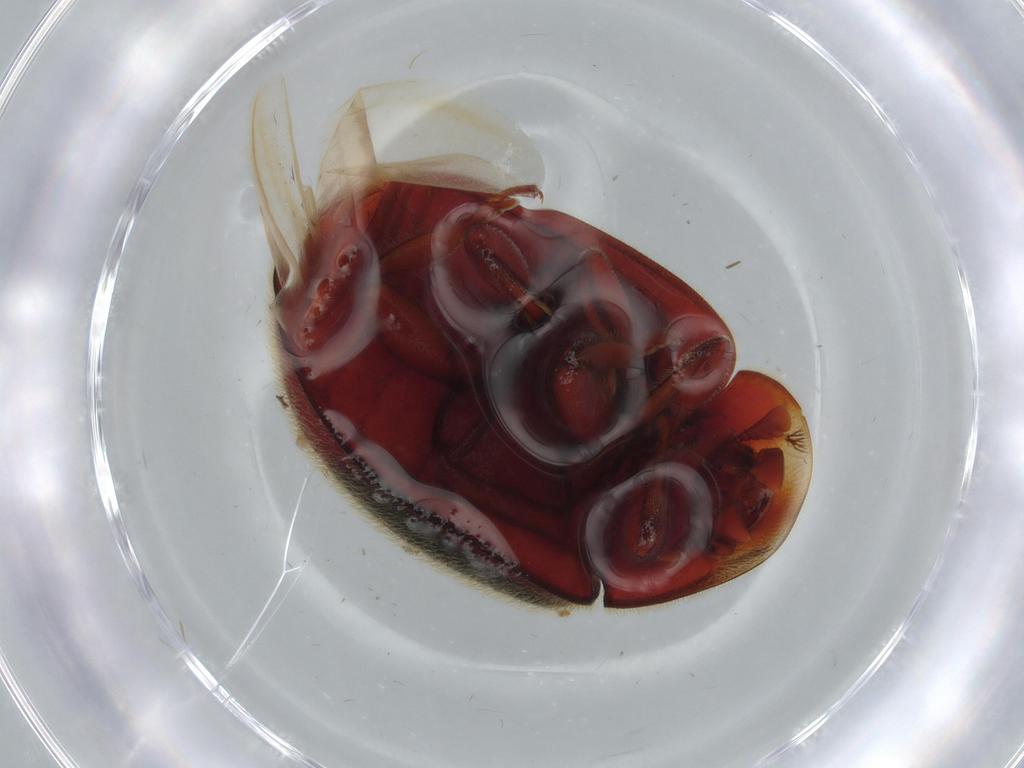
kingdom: Animalia
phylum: Arthropoda
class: Insecta
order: Coleoptera
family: Coccinellidae
